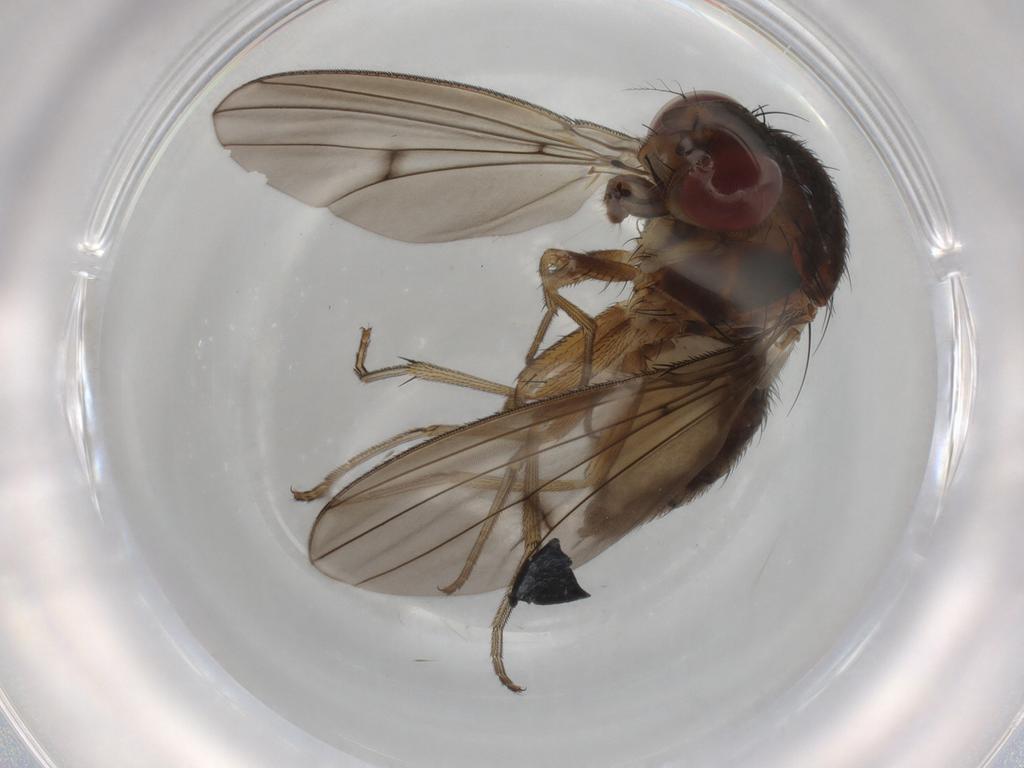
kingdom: Animalia
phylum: Arthropoda
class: Insecta
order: Diptera
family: Curtonotidae
